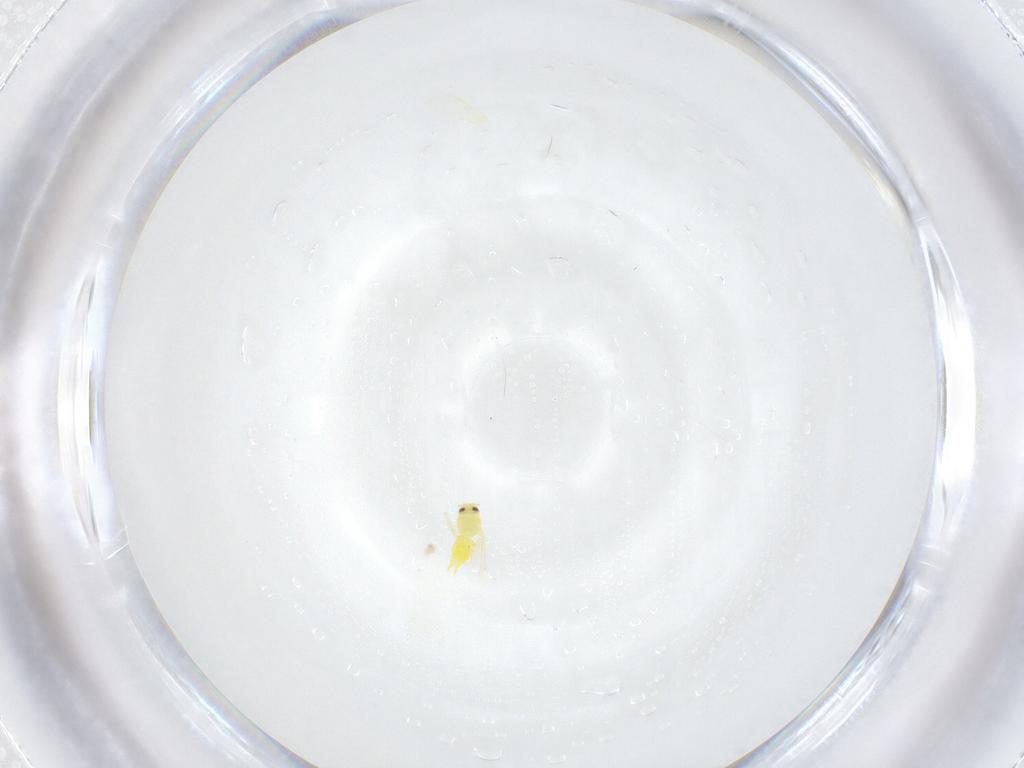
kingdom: Animalia
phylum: Arthropoda
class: Insecta
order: Hemiptera
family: Aleyrodidae
